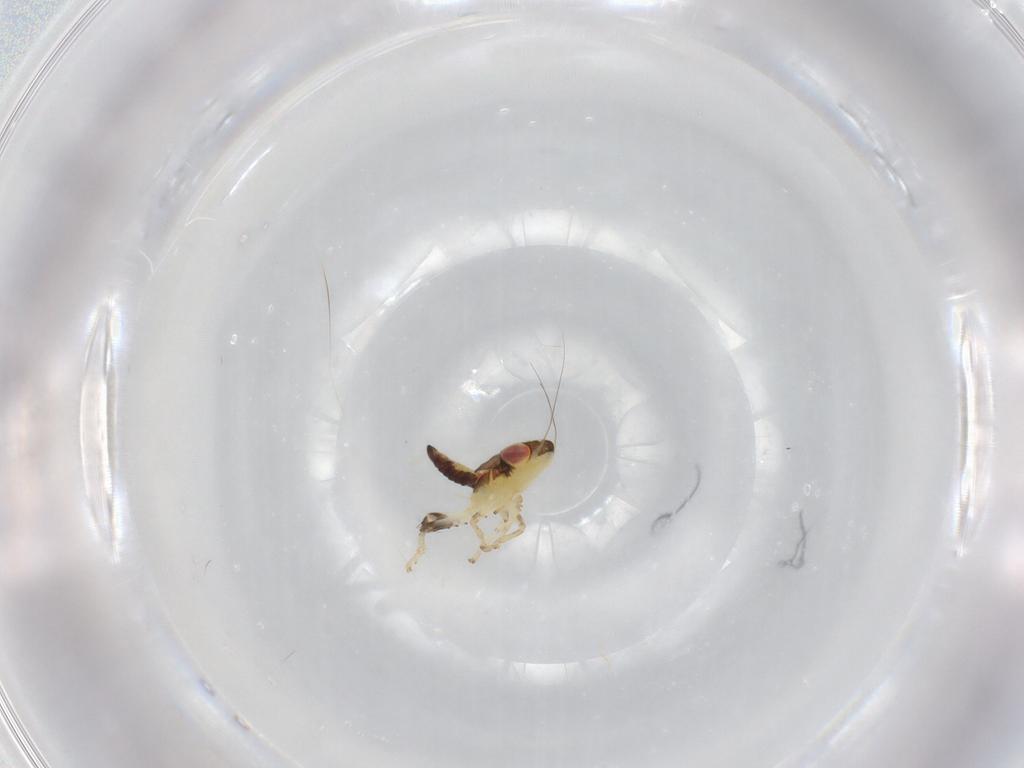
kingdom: Animalia
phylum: Arthropoda
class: Insecta
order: Hemiptera
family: Cicadellidae
